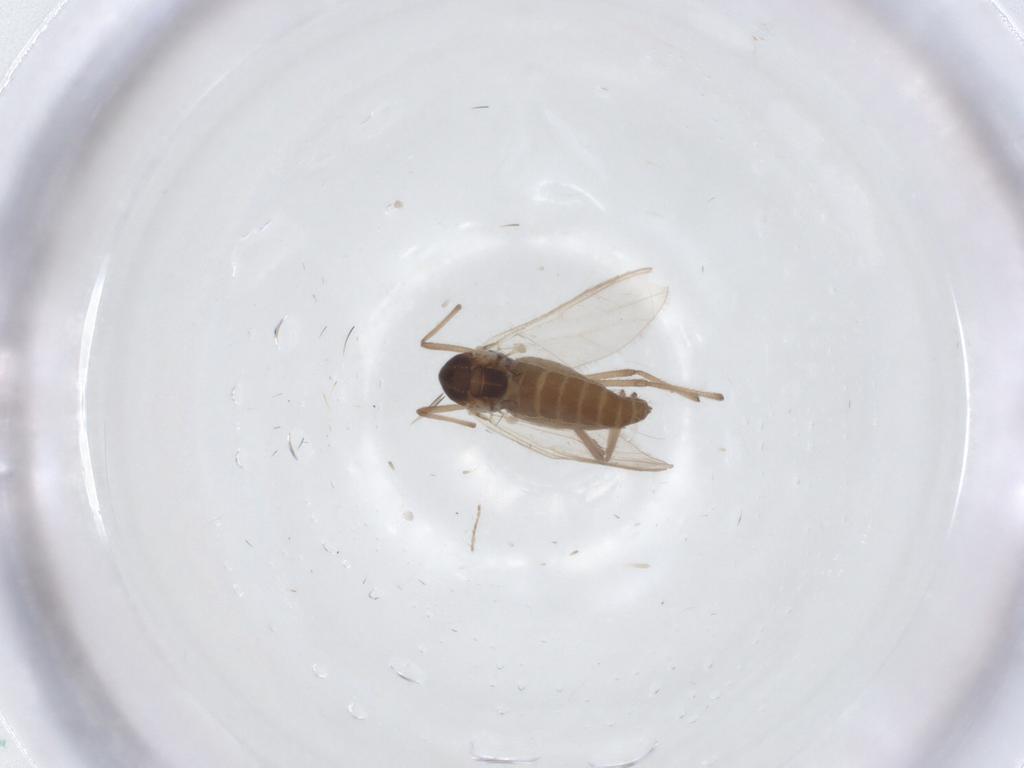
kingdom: Animalia
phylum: Arthropoda
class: Insecta
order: Diptera
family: Chironomidae
